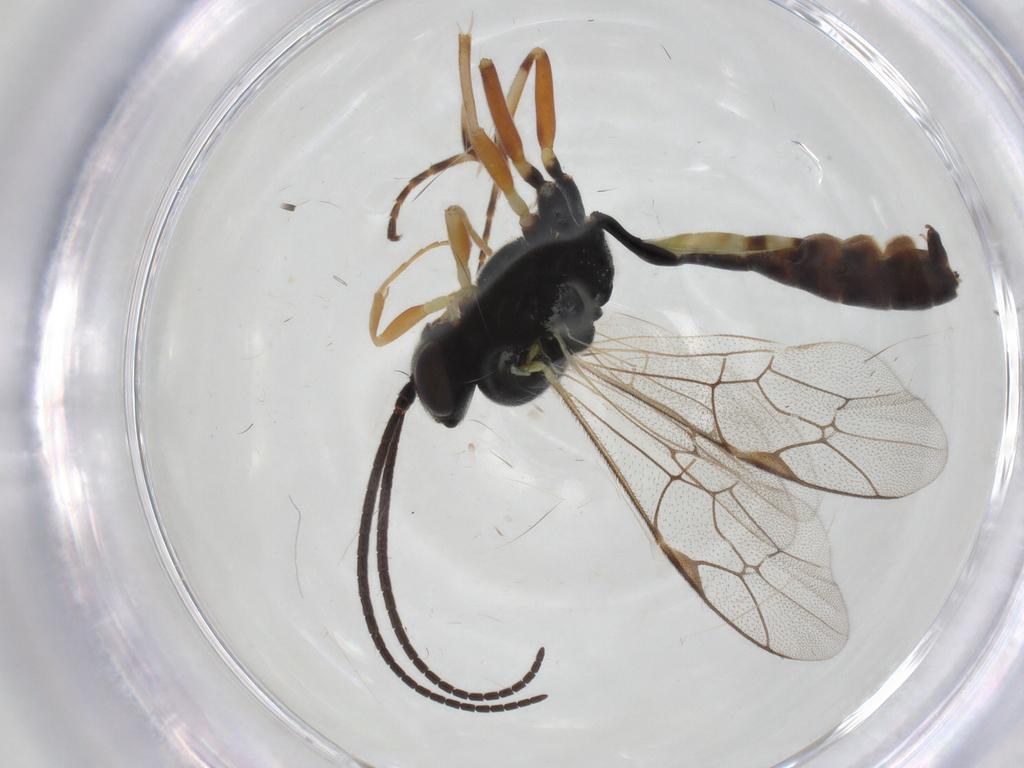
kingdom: Animalia
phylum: Arthropoda
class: Insecta
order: Hymenoptera
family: Ichneumonidae
